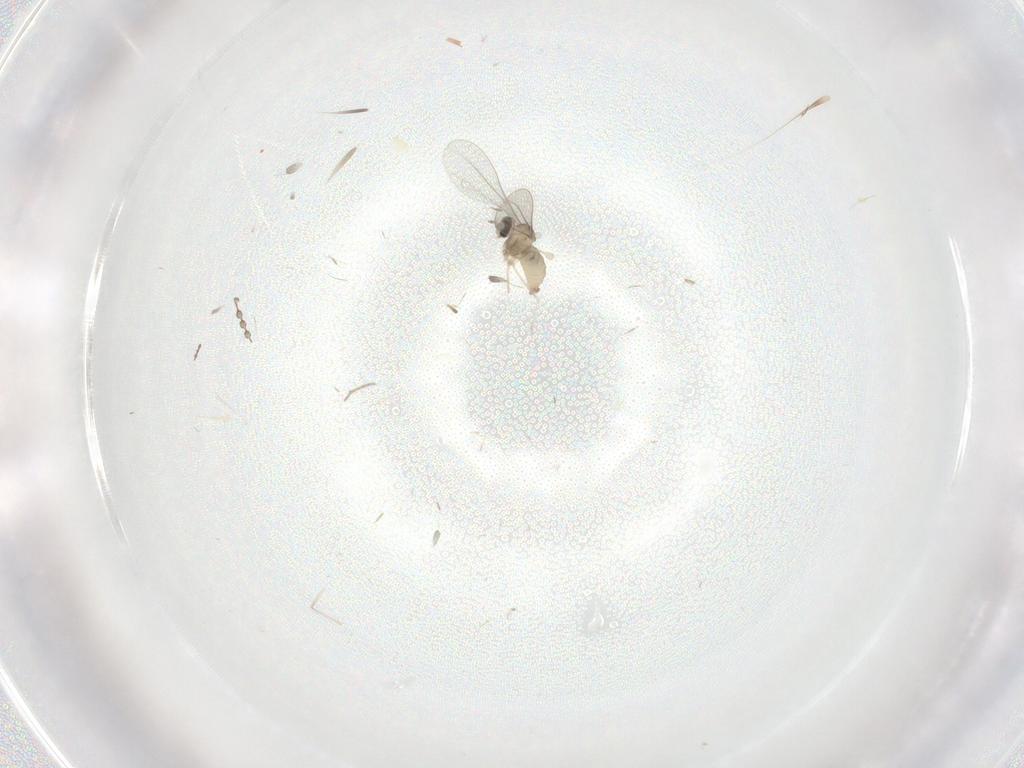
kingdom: Animalia
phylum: Arthropoda
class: Insecta
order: Diptera
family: Cecidomyiidae
